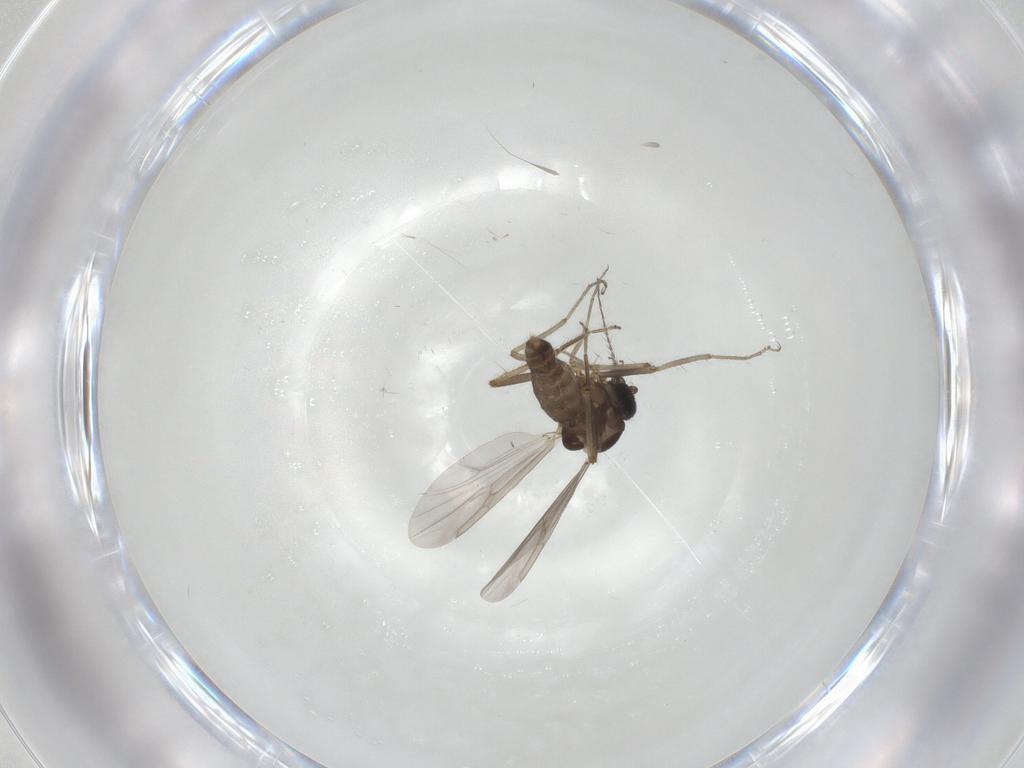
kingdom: Animalia
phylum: Arthropoda
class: Insecta
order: Diptera
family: Ceratopogonidae
